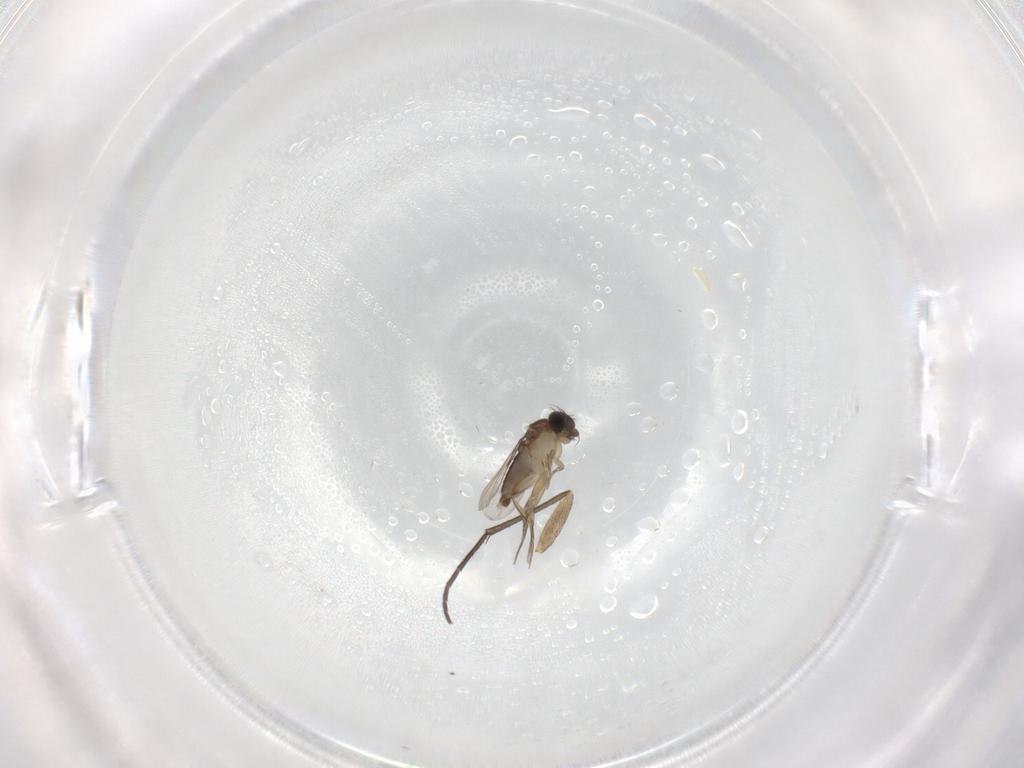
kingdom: Animalia
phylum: Arthropoda
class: Insecta
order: Diptera
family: Phoridae
